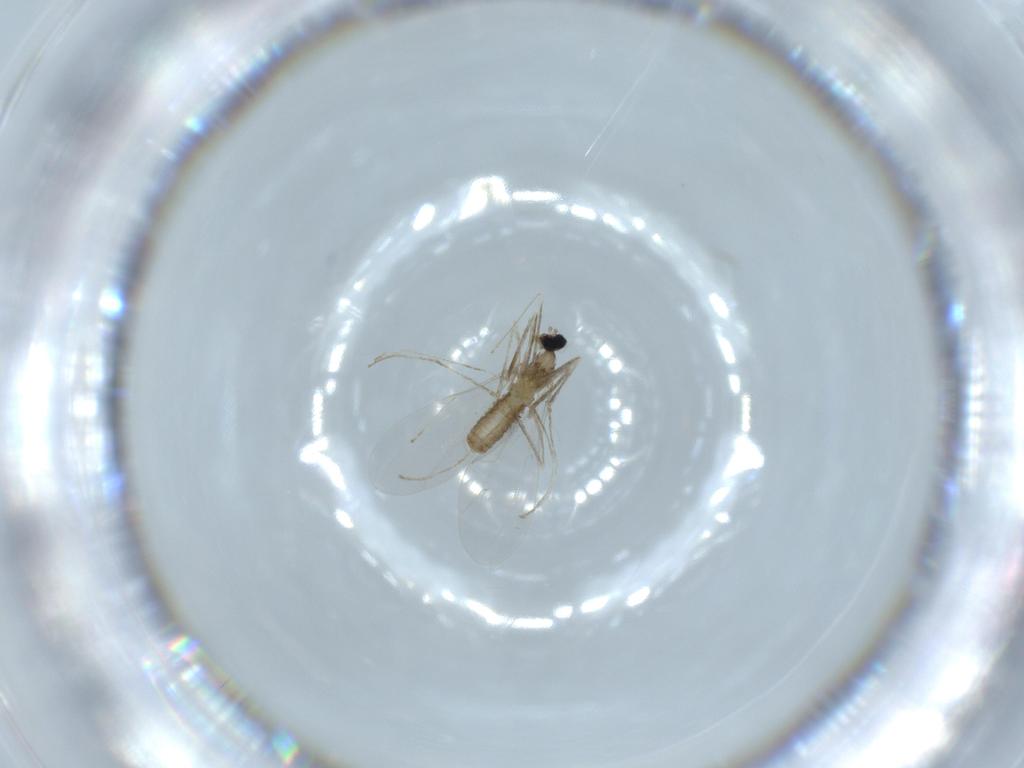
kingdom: Animalia
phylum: Arthropoda
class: Insecta
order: Diptera
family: Cecidomyiidae
